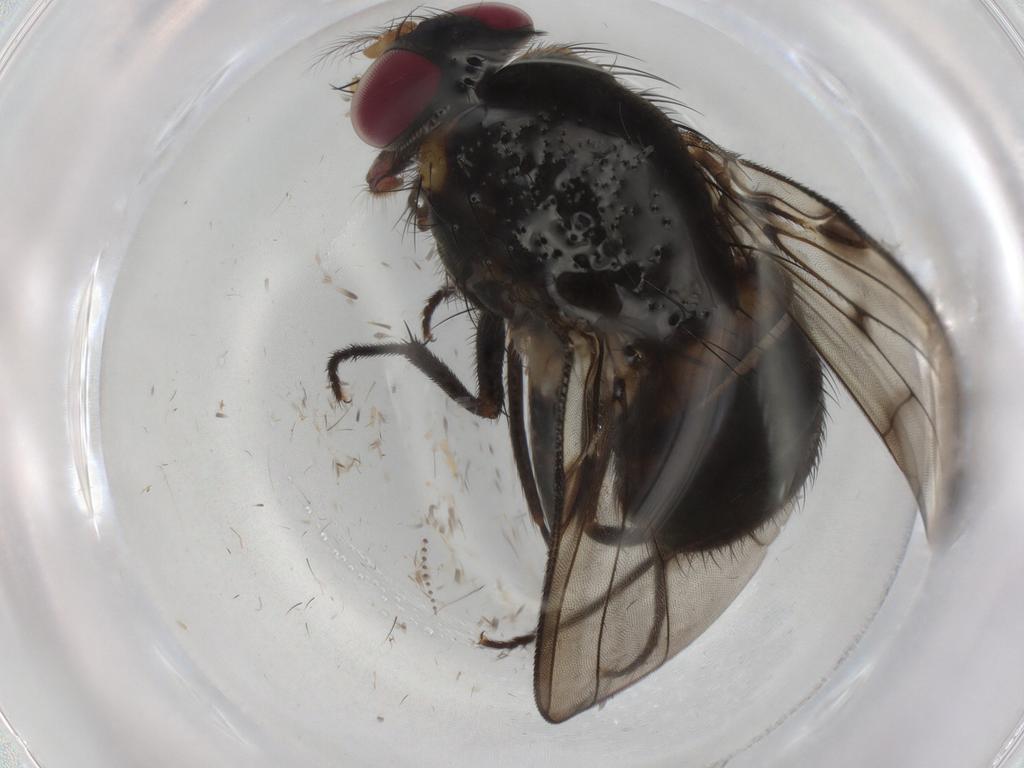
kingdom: Animalia
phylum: Arthropoda
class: Insecta
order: Diptera
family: Muscidae
